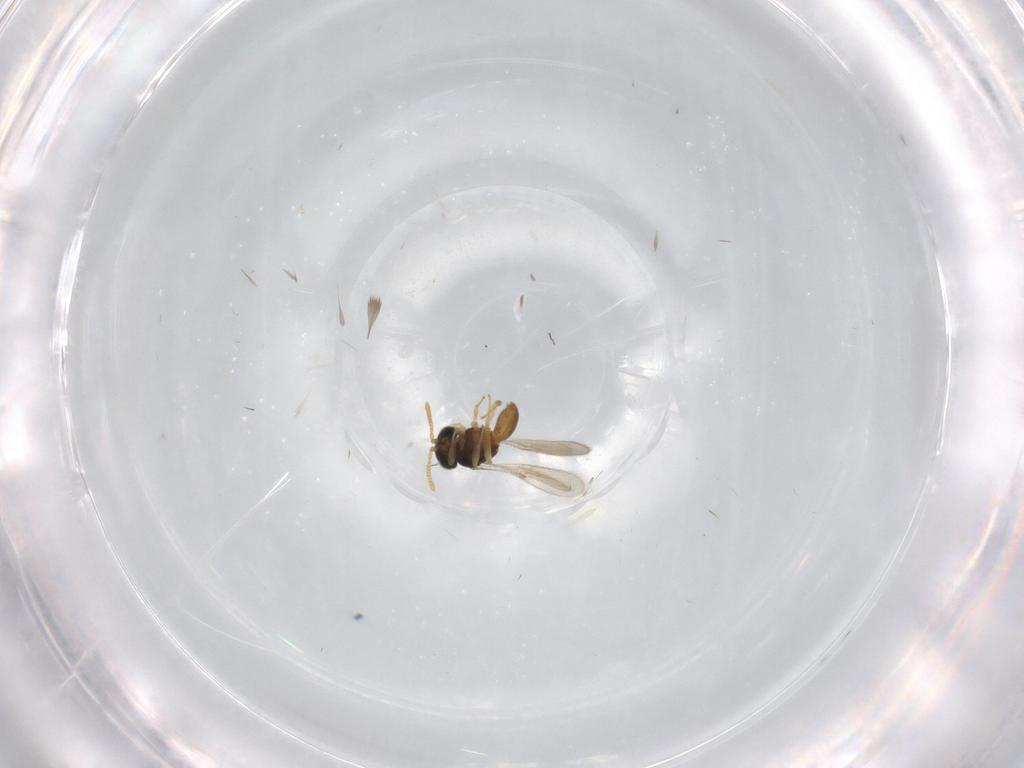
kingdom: Animalia
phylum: Arthropoda
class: Insecta
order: Hymenoptera
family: Scelionidae
